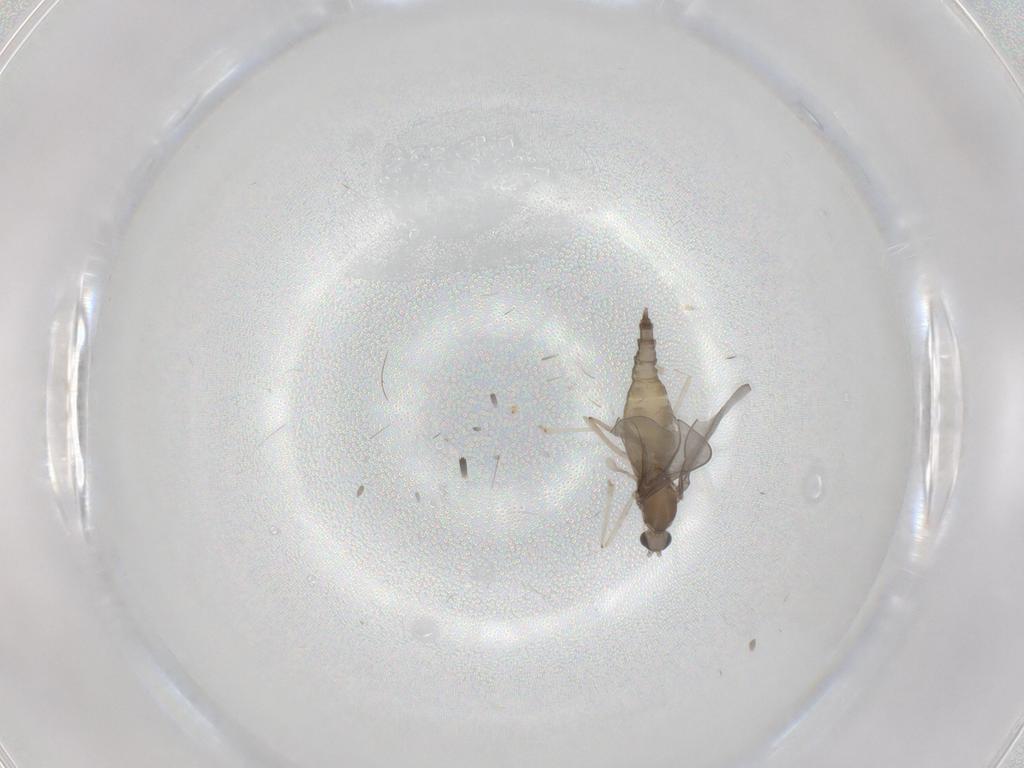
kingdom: Animalia
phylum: Arthropoda
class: Insecta
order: Diptera
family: Cecidomyiidae
